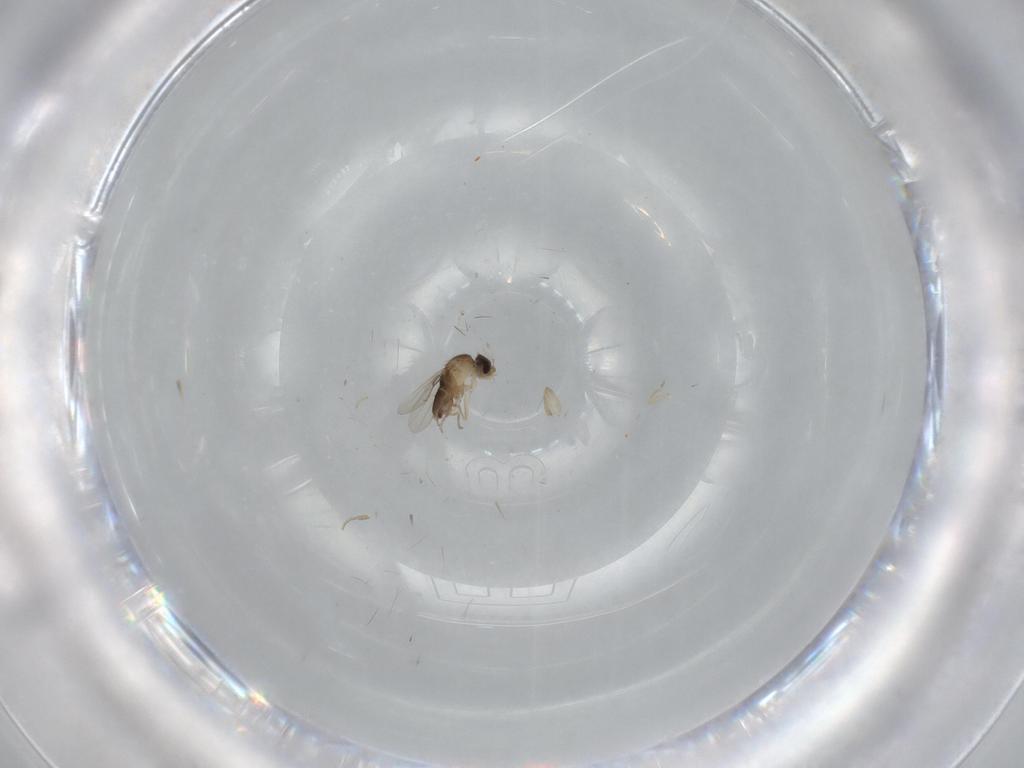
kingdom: Animalia
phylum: Arthropoda
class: Insecta
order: Diptera
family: Phoridae
